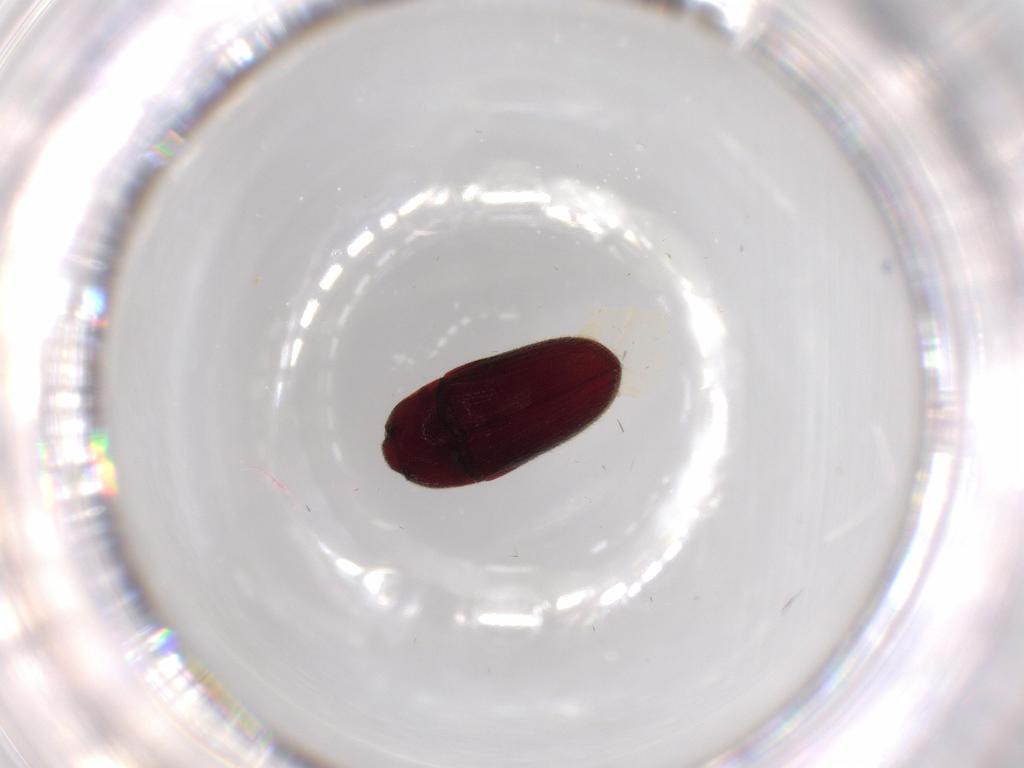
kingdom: Animalia
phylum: Arthropoda
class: Insecta
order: Coleoptera
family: Throscidae
